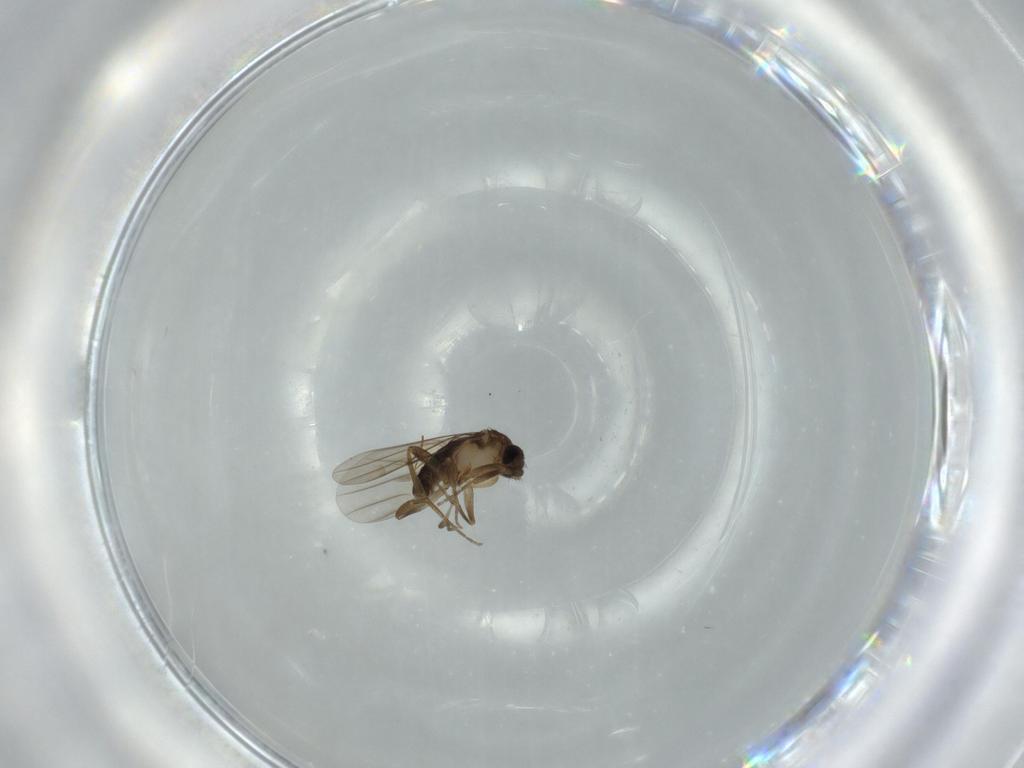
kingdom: Animalia
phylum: Arthropoda
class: Insecta
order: Diptera
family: Phoridae
